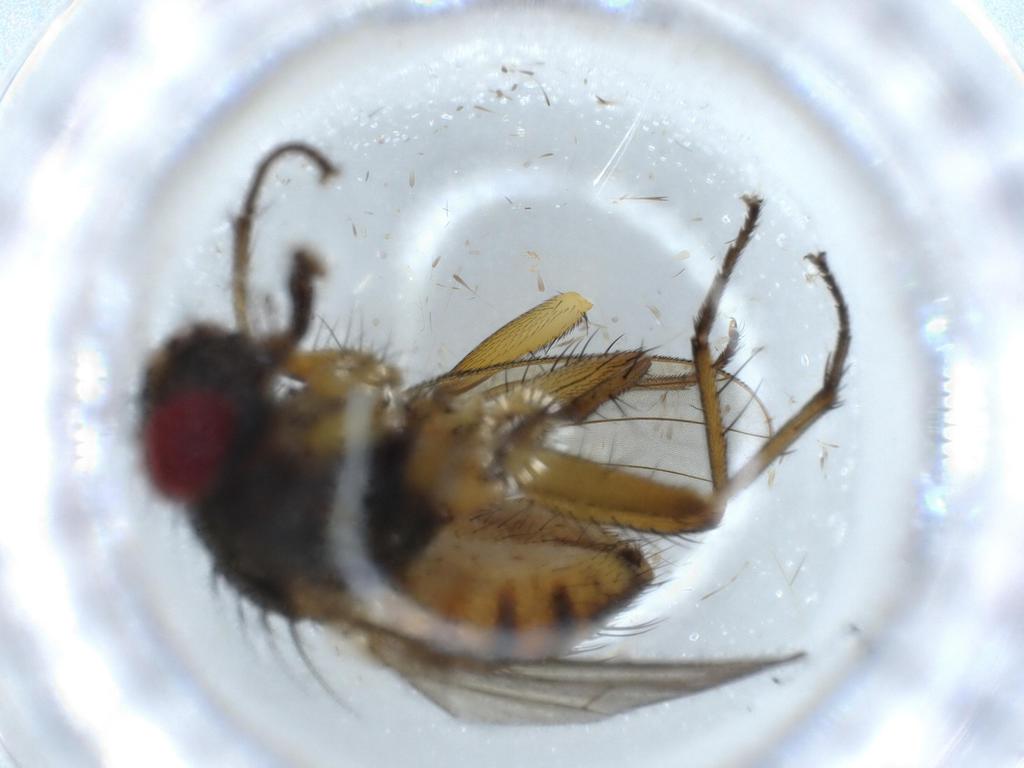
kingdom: Animalia
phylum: Arthropoda
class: Insecta
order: Diptera
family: Muscidae
